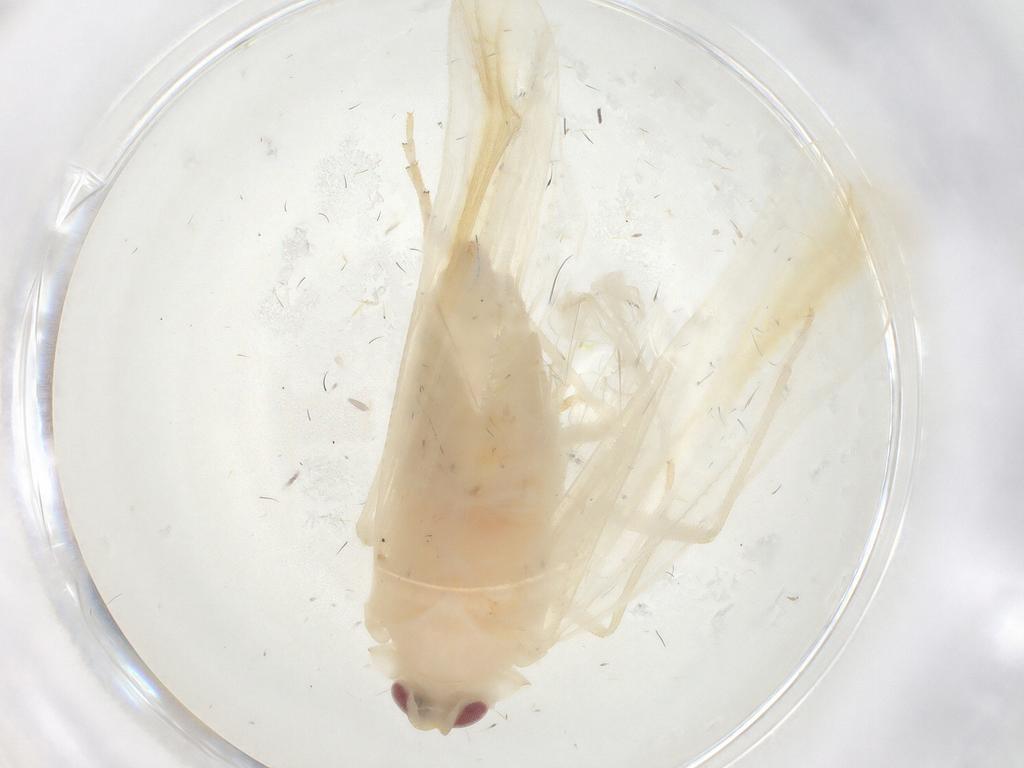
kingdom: Animalia
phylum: Arthropoda
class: Insecta
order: Hemiptera
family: Derbidae
